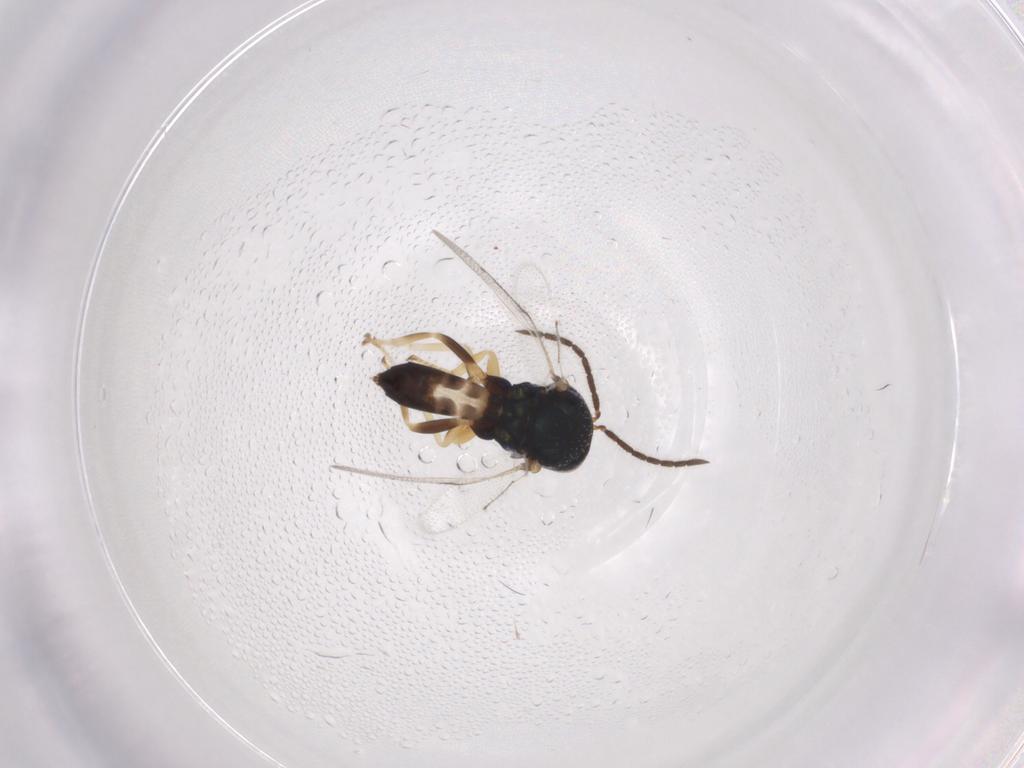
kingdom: Animalia
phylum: Arthropoda
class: Insecta
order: Hymenoptera
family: Pteromalidae
